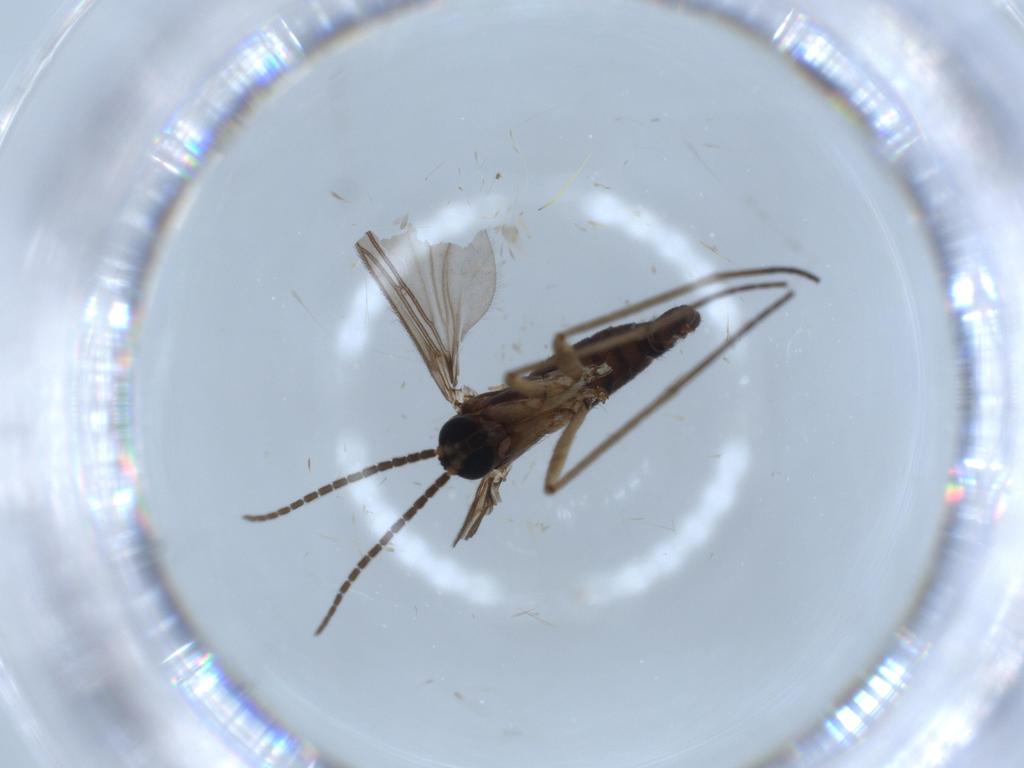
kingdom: Animalia
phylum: Arthropoda
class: Insecta
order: Diptera
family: Sciaridae
